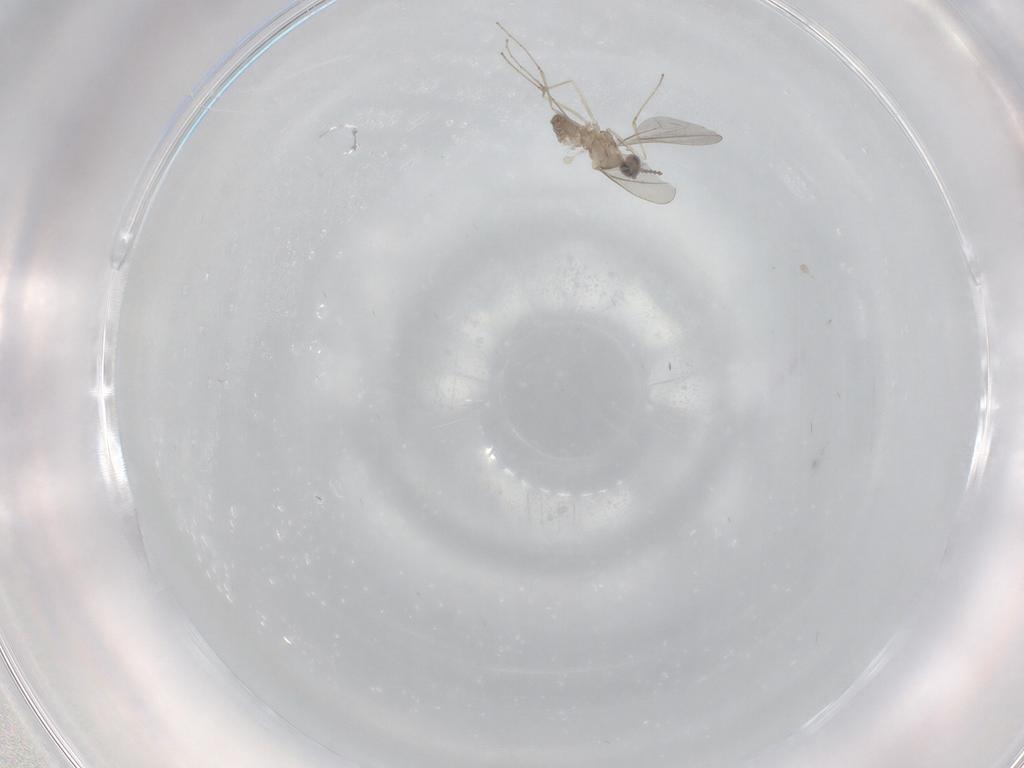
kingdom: Animalia
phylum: Arthropoda
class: Insecta
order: Diptera
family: Cecidomyiidae
